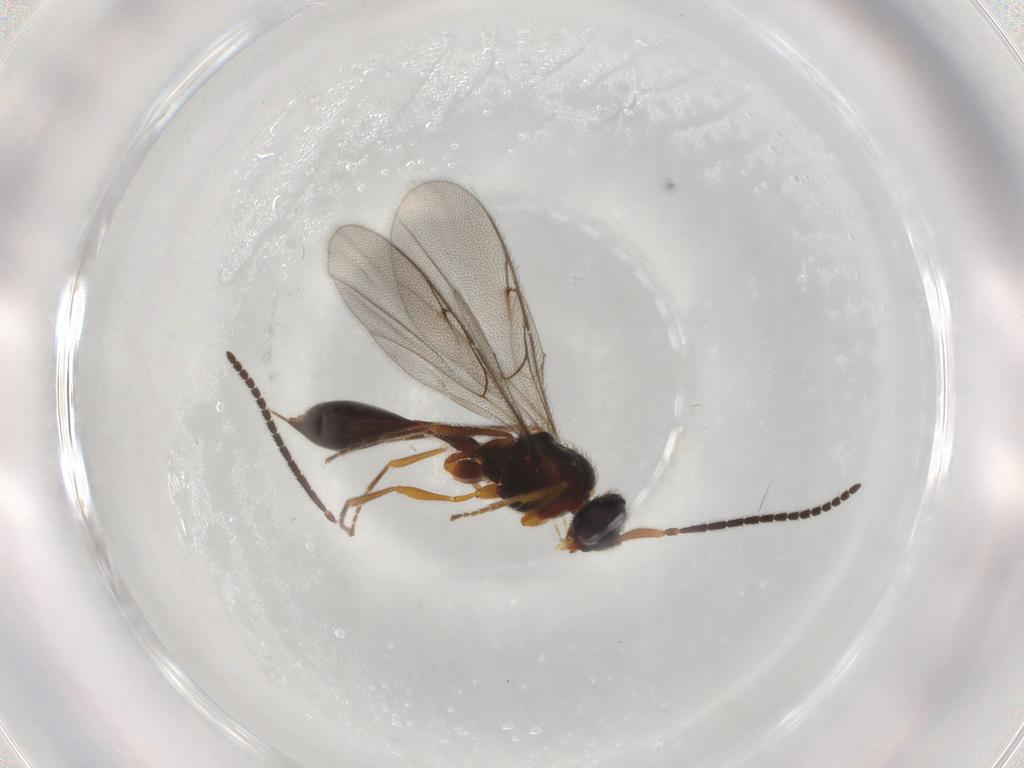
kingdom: Animalia
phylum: Arthropoda
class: Insecta
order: Hymenoptera
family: Diapriidae
